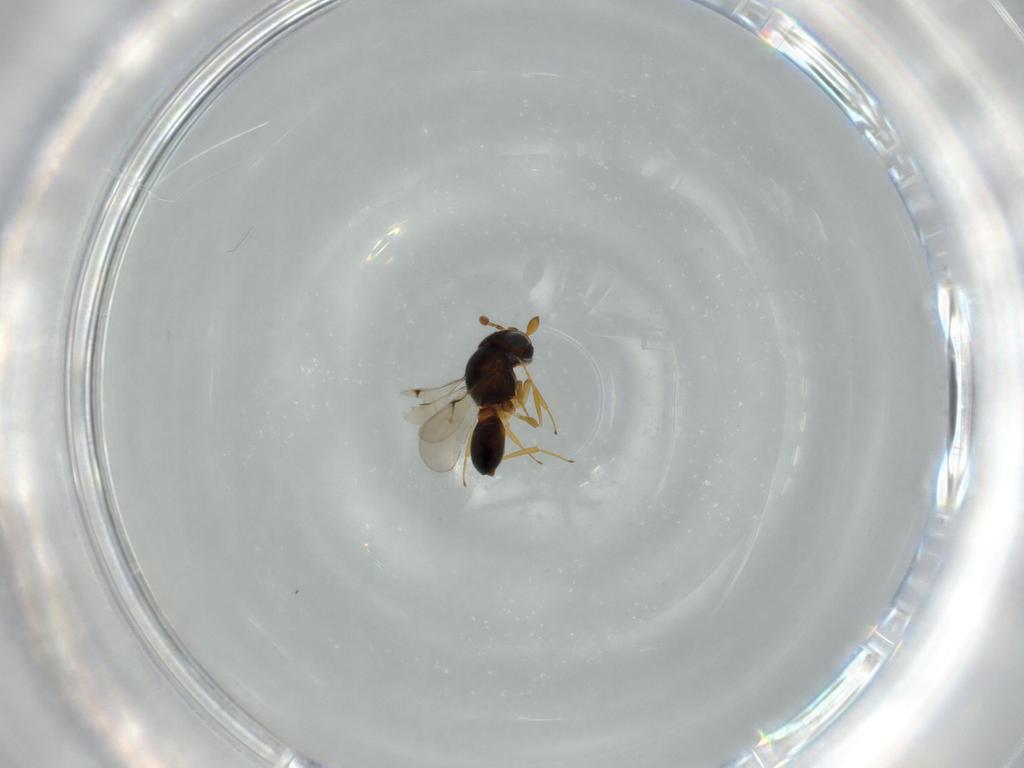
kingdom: Animalia
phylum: Arthropoda
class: Insecta
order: Hymenoptera
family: Scelionidae
